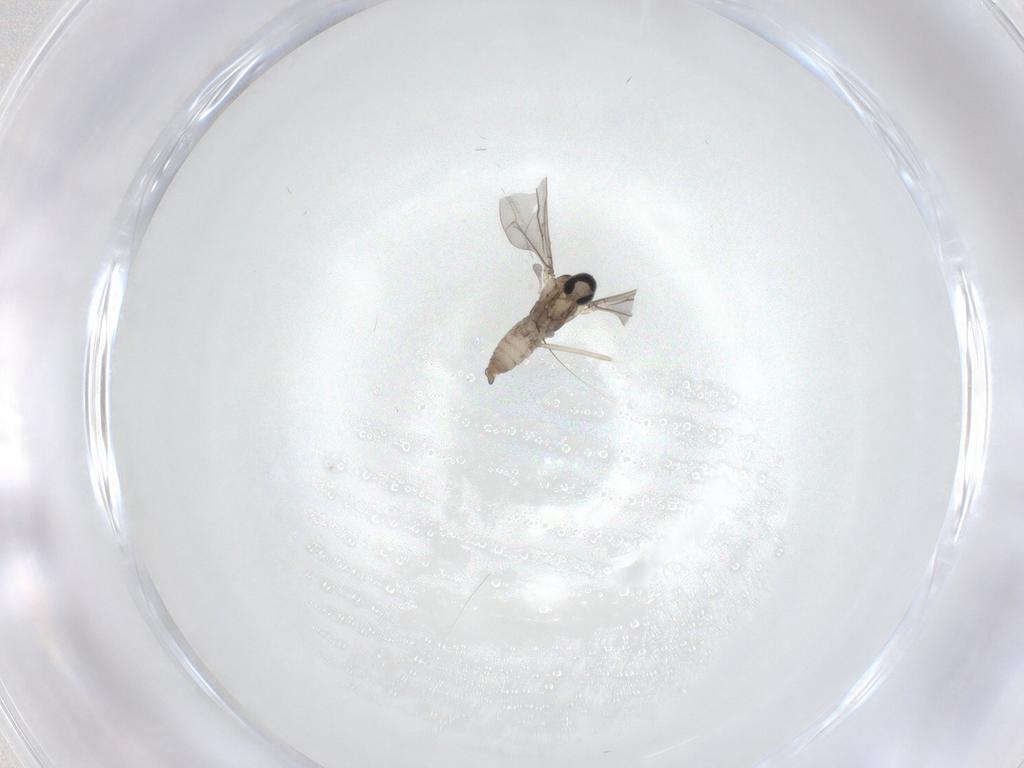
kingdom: Animalia
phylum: Arthropoda
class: Insecta
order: Diptera
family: Cecidomyiidae
